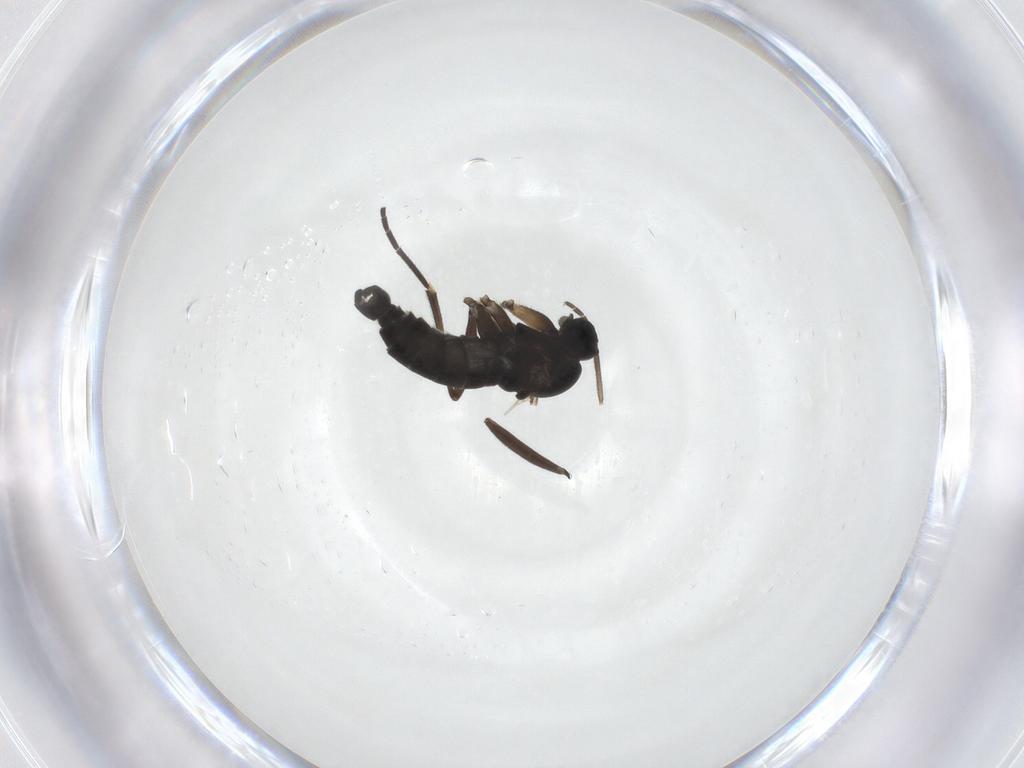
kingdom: Animalia
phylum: Arthropoda
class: Insecta
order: Diptera
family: Sciaridae
